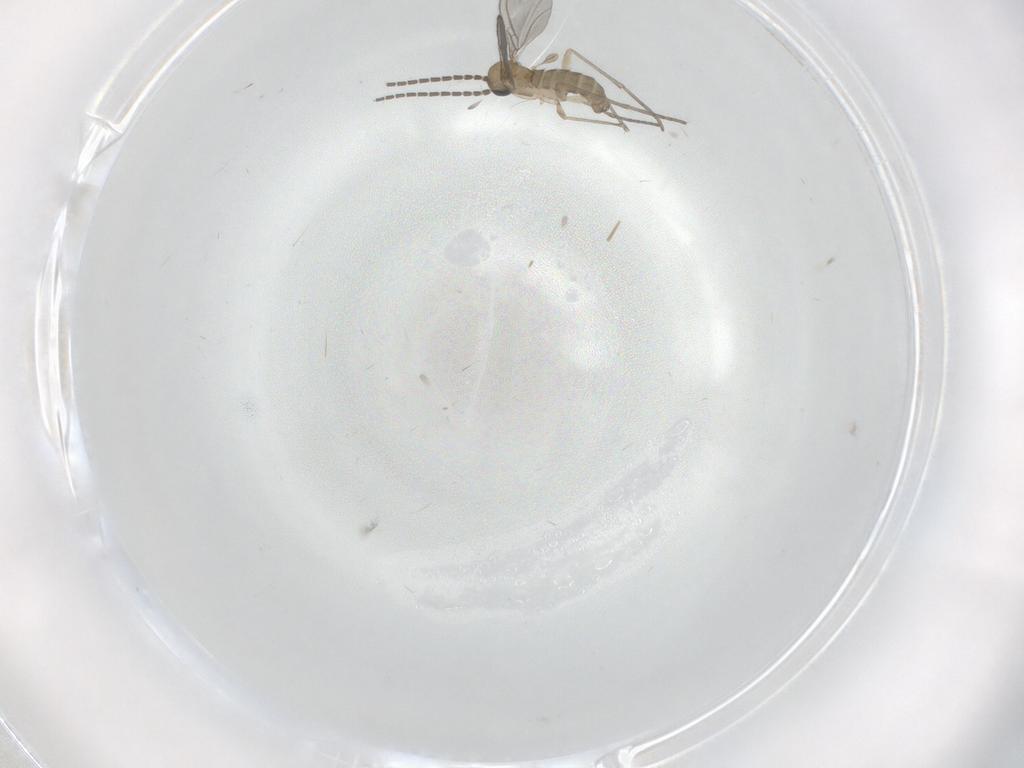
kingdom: Animalia
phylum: Arthropoda
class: Insecta
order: Diptera
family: Sciaridae
